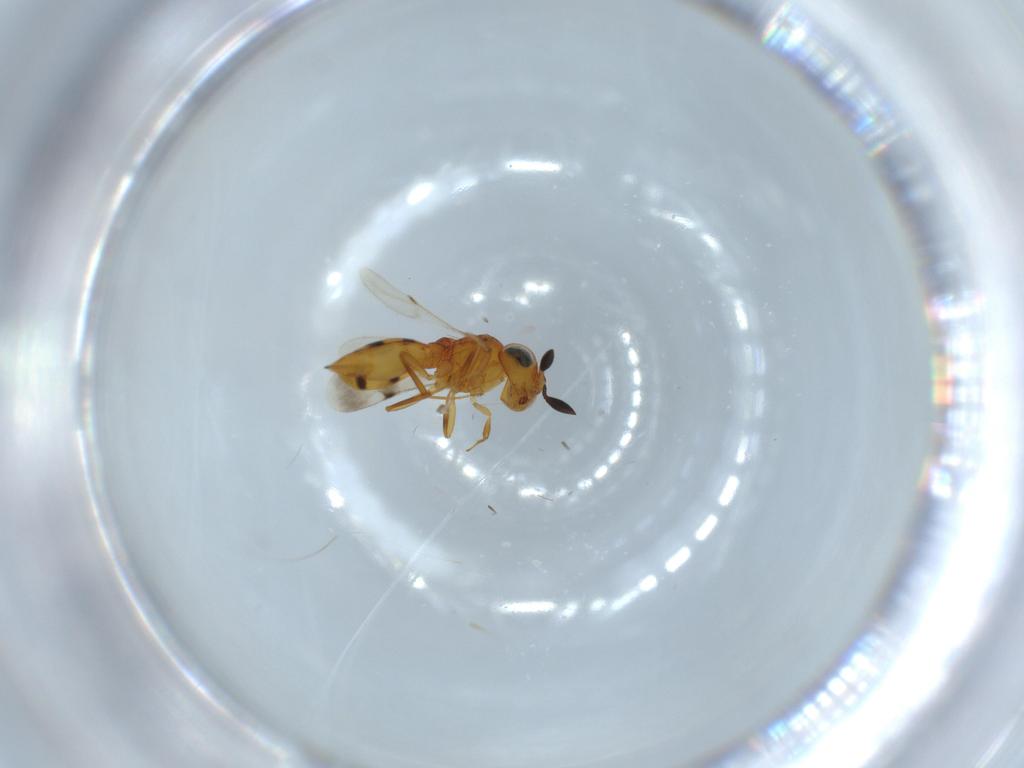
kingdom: Animalia
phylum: Arthropoda
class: Insecta
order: Hymenoptera
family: Scelionidae
